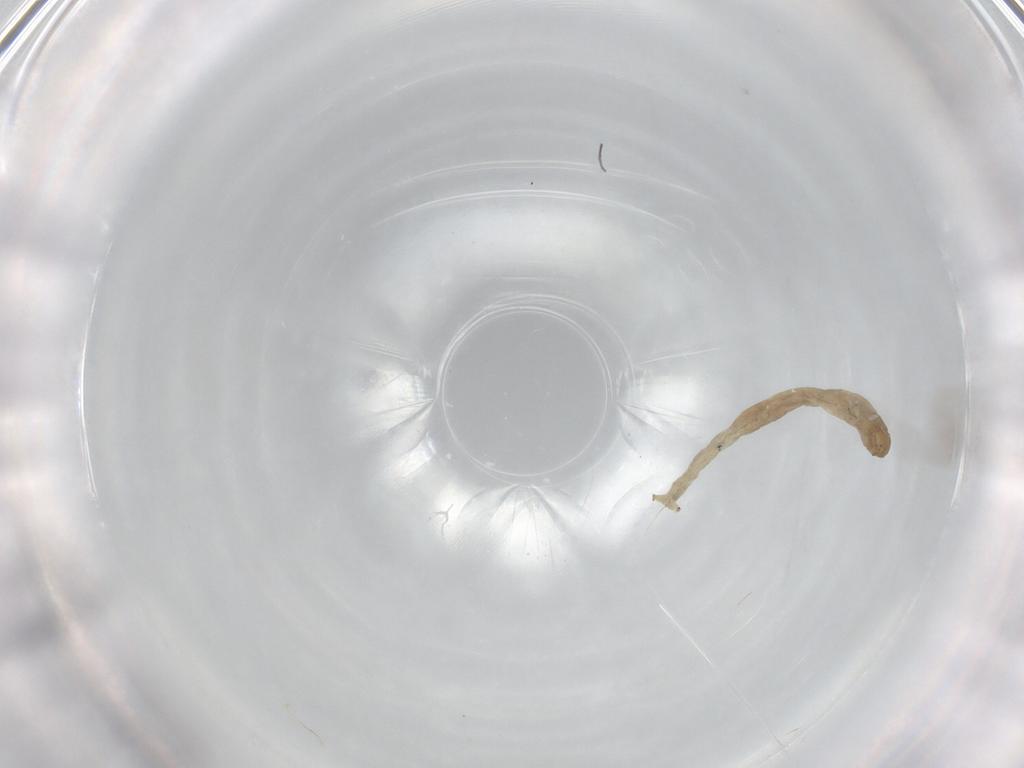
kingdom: Animalia
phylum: Arthropoda
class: Insecta
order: Diptera
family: Chironomidae
